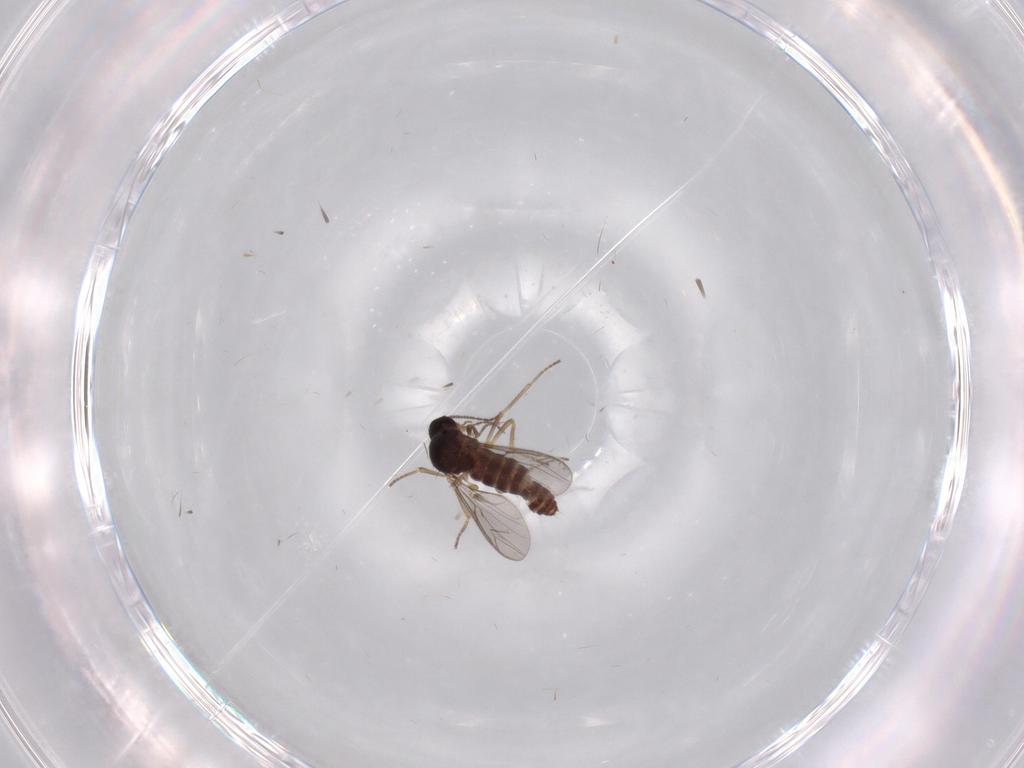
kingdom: Animalia
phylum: Arthropoda
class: Insecta
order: Diptera
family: Ceratopogonidae
